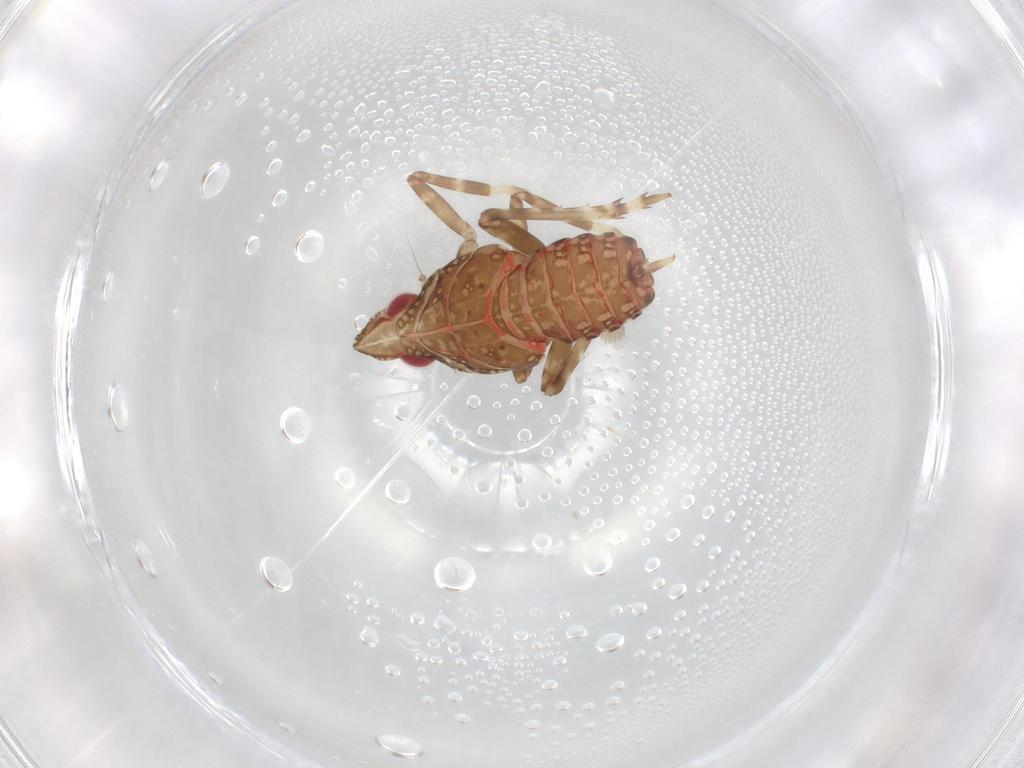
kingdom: Animalia
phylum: Arthropoda
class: Insecta
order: Hemiptera
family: Fulgoroidea_incertae_sedis
